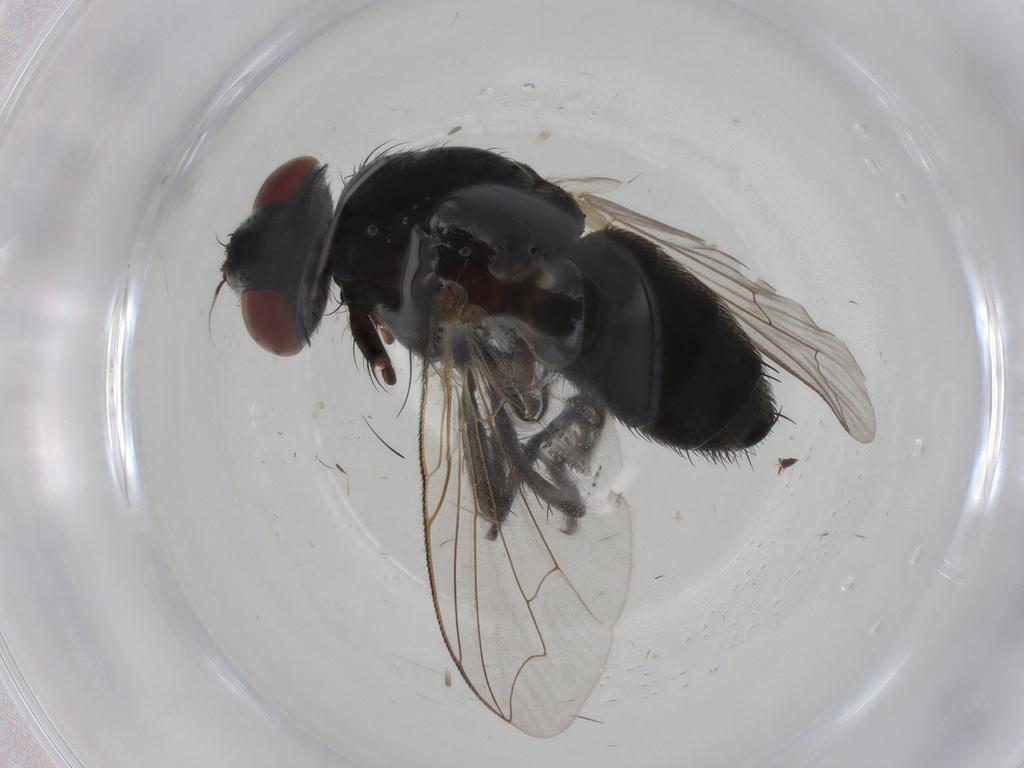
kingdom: Animalia
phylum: Arthropoda
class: Insecta
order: Diptera
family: Sarcophagidae
